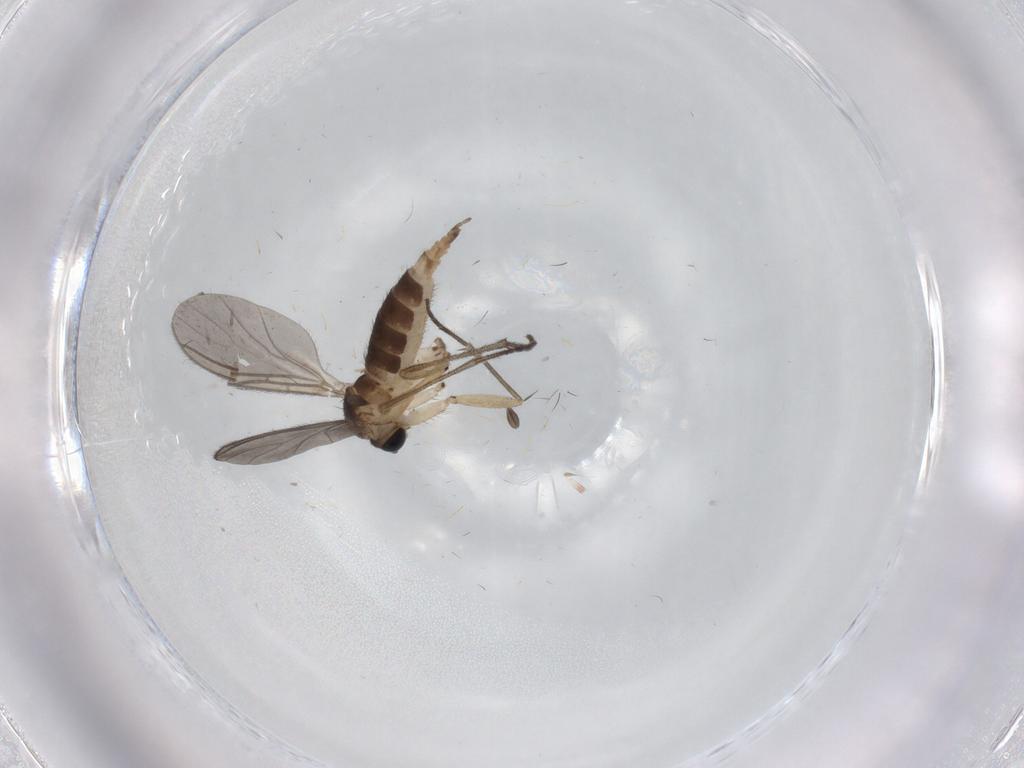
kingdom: Animalia
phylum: Arthropoda
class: Insecta
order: Diptera
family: Sciaridae
